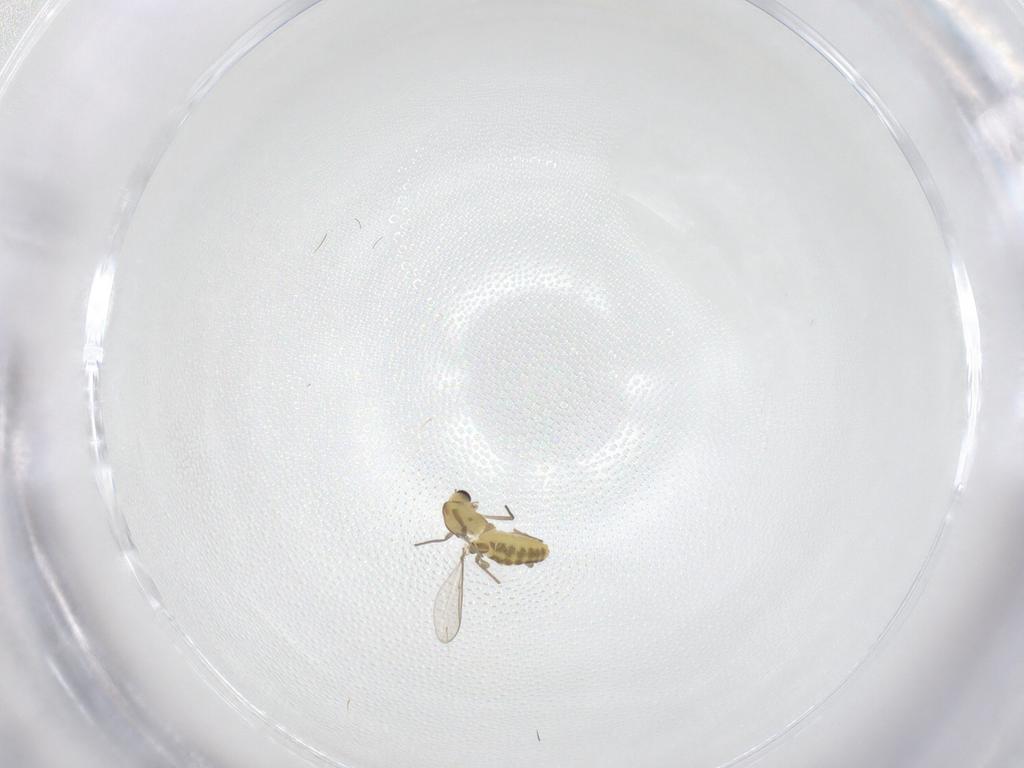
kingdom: Animalia
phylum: Arthropoda
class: Insecta
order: Diptera
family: Chironomidae
